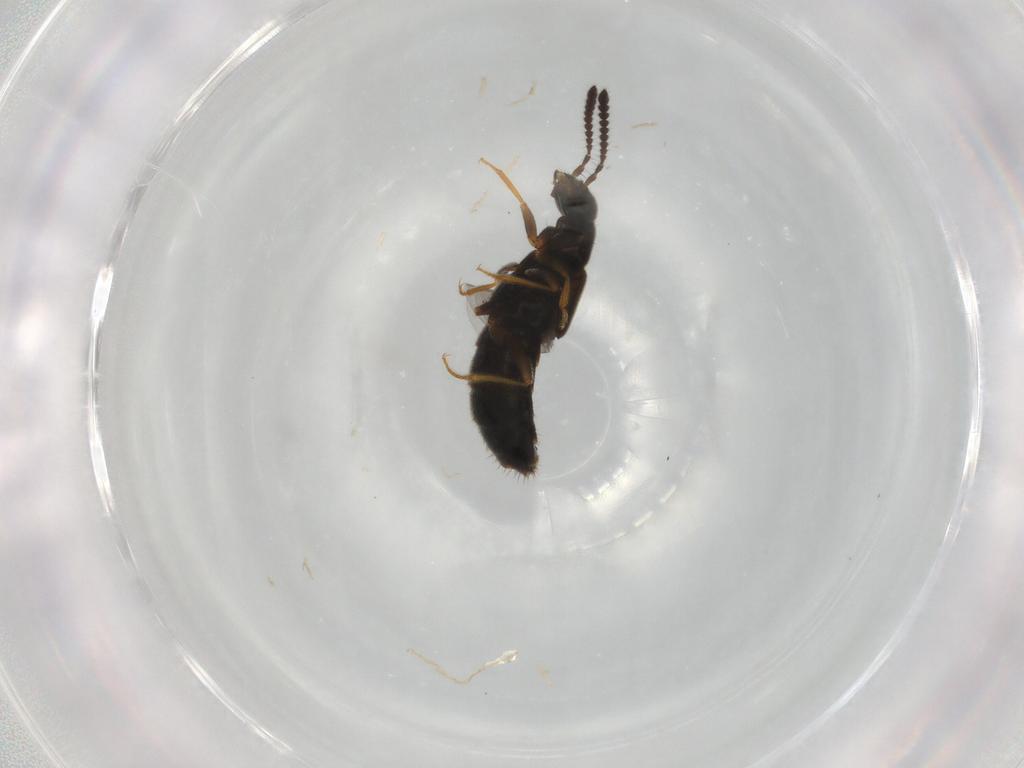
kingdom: Animalia
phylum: Arthropoda
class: Insecta
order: Coleoptera
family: Staphylinidae
